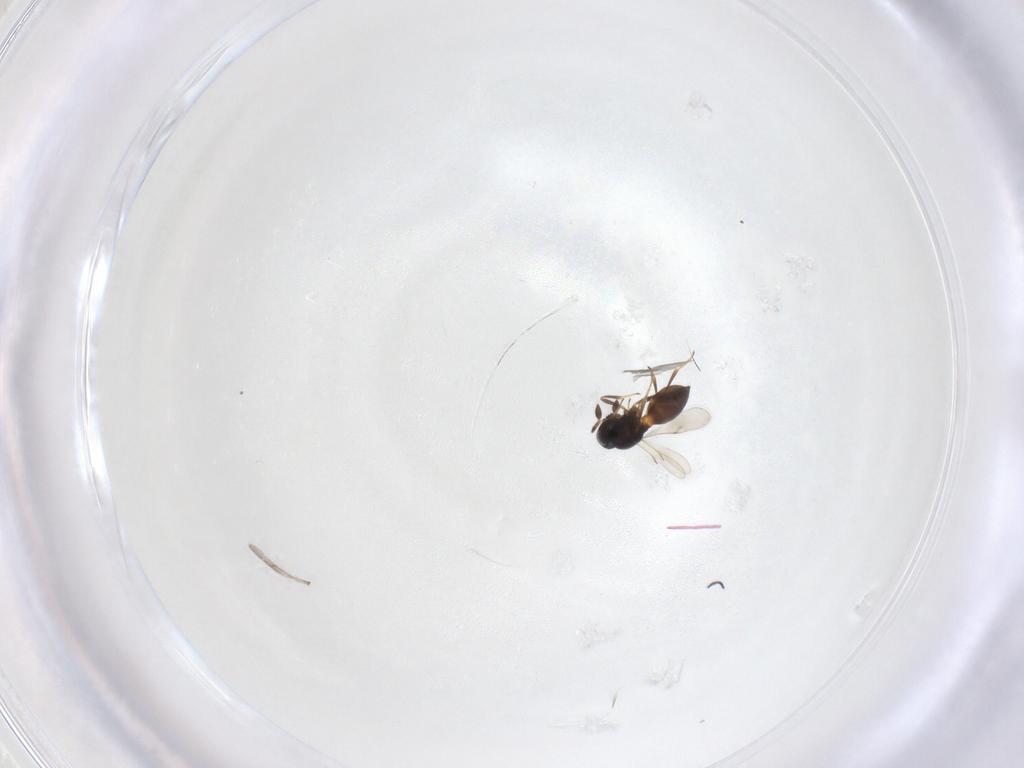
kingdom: Animalia
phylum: Arthropoda
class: Insecta
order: Hymenoptera
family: Scelionidae
